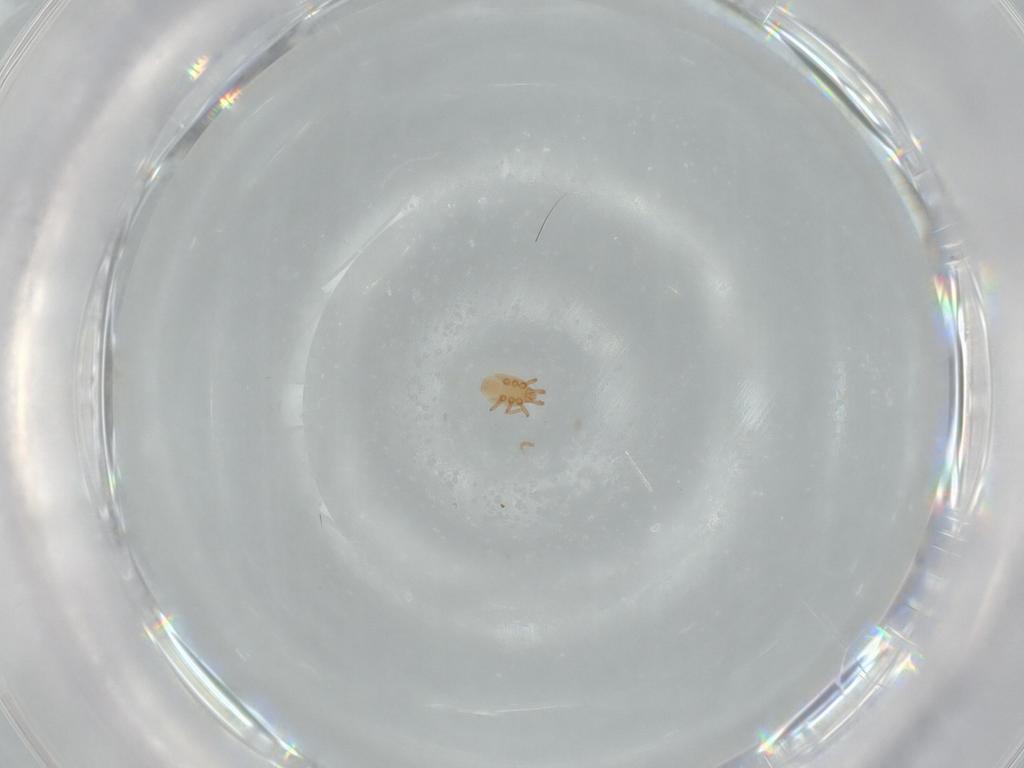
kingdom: Animalia
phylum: Arthropoda
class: Arachnida
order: Mesostigmata
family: Dinychidae
